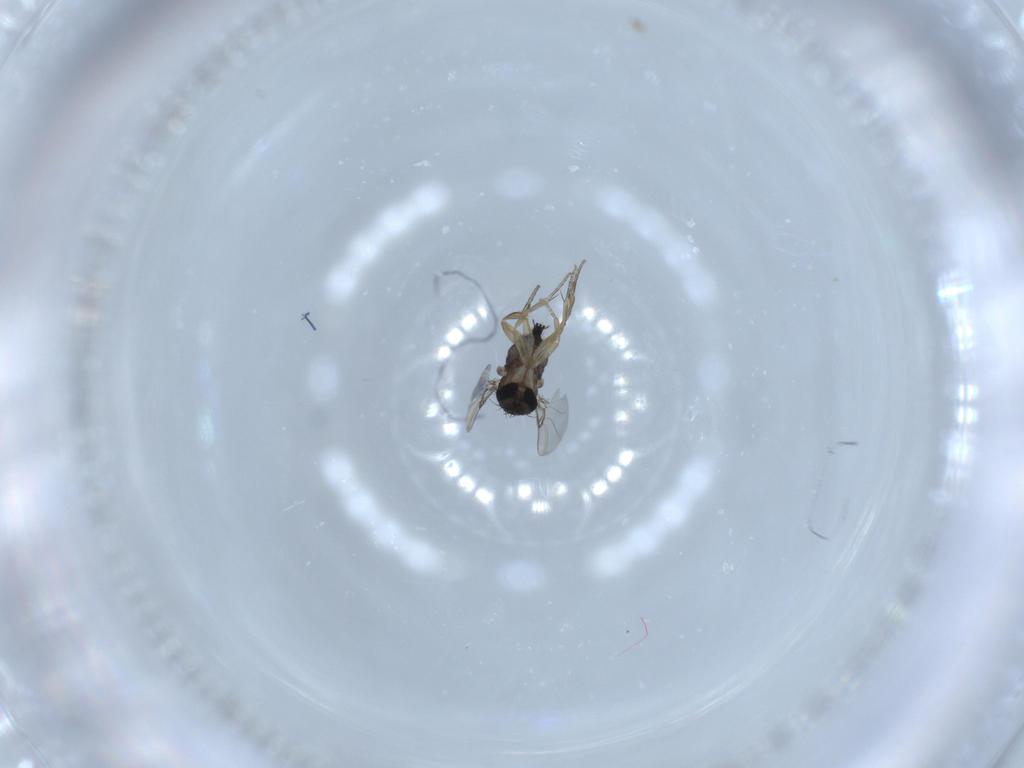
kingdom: Animalia
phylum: Arthropoda
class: Insecta
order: Diptera
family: Phoridae
